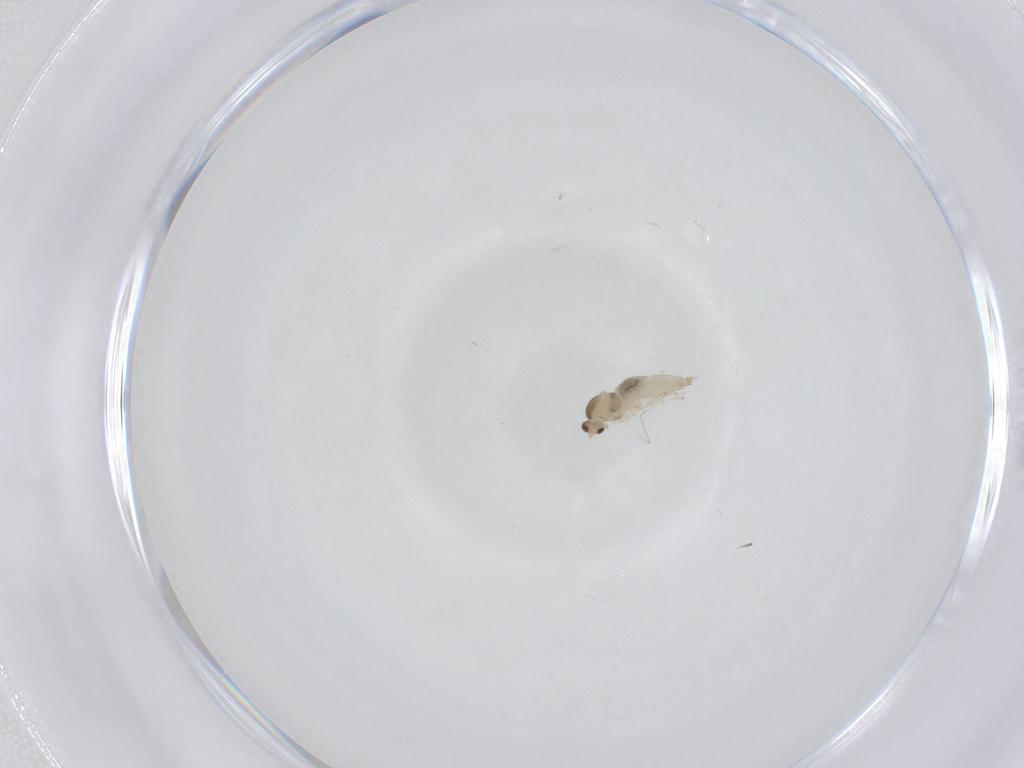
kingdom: Animalia
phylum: Arthropoda
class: Insecta
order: Diptera
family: Cecidomyiidae
